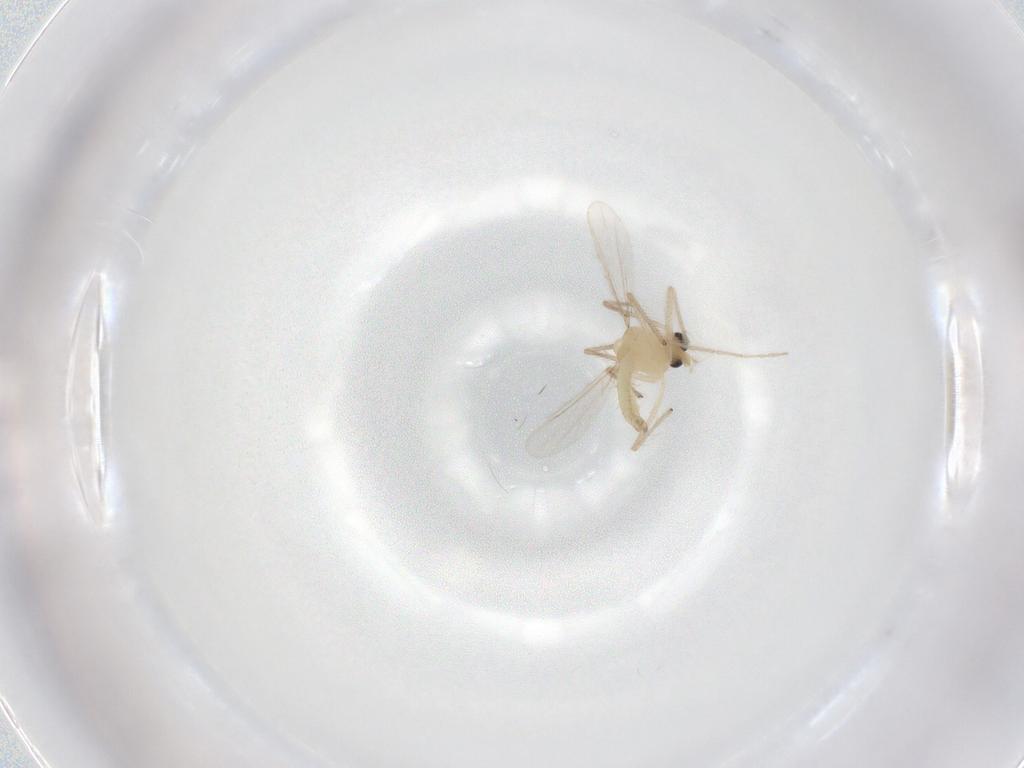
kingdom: Animalia
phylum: Arthropoda
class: Insecta
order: Diptera
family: Chironomidae
